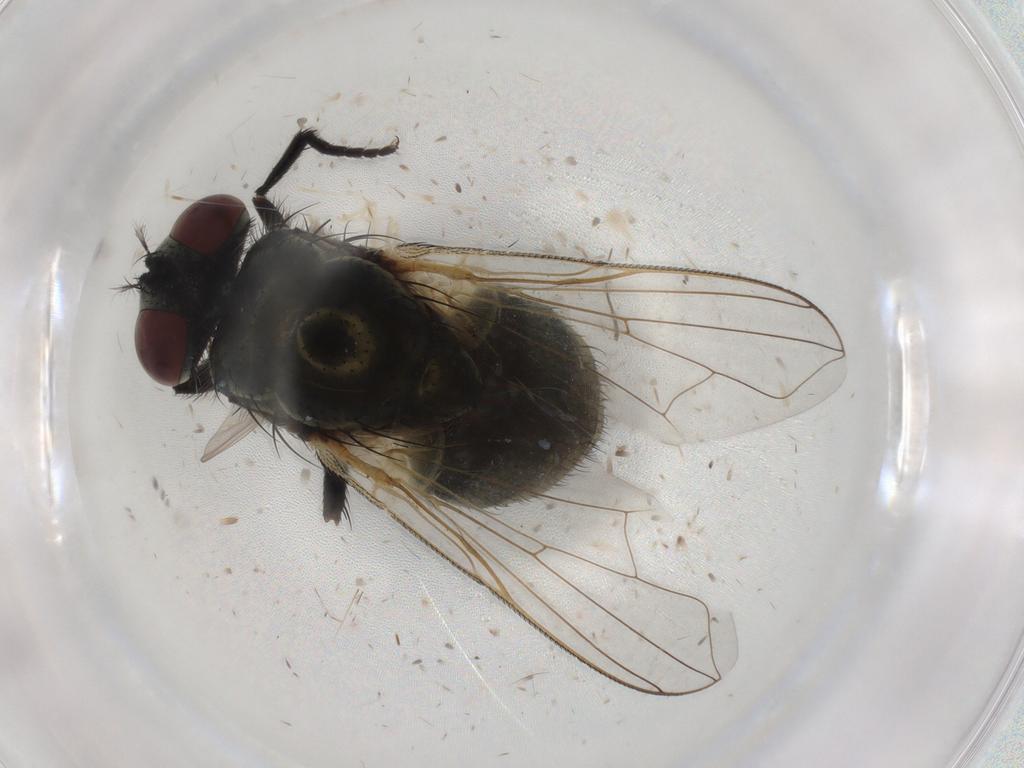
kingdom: Animalia
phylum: Arthropoda
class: Insecta
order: Diptera
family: Muscidae
